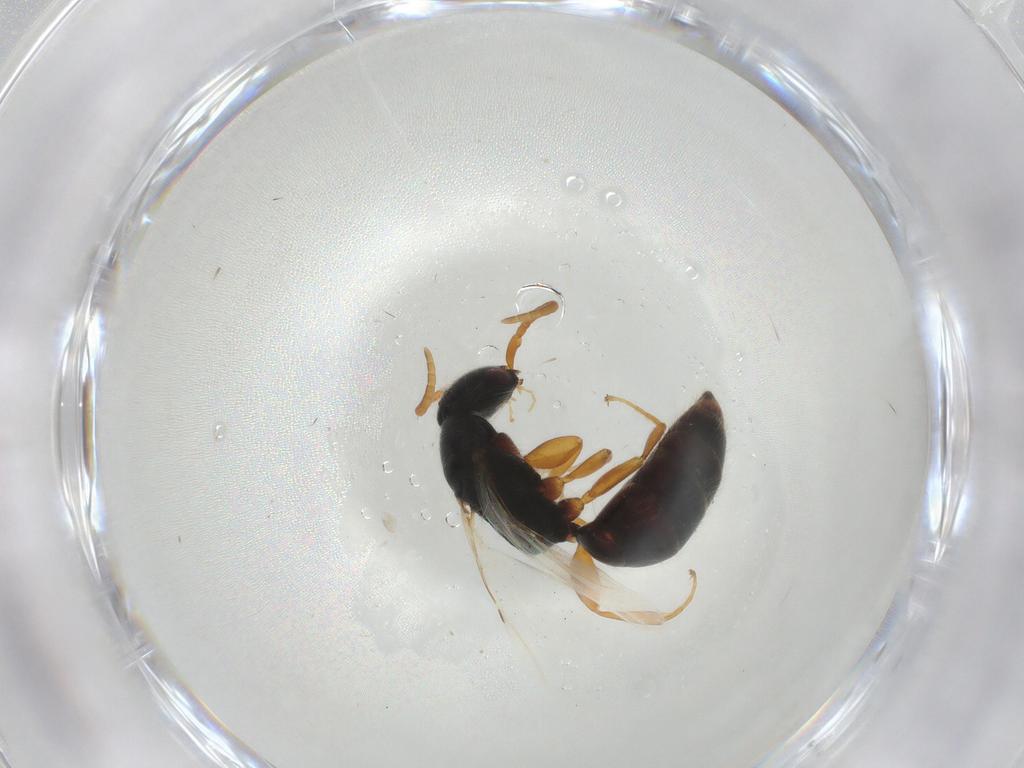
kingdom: Animalia
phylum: Arthropoda
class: Insecta
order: Hymenoptera
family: Bethylidae
